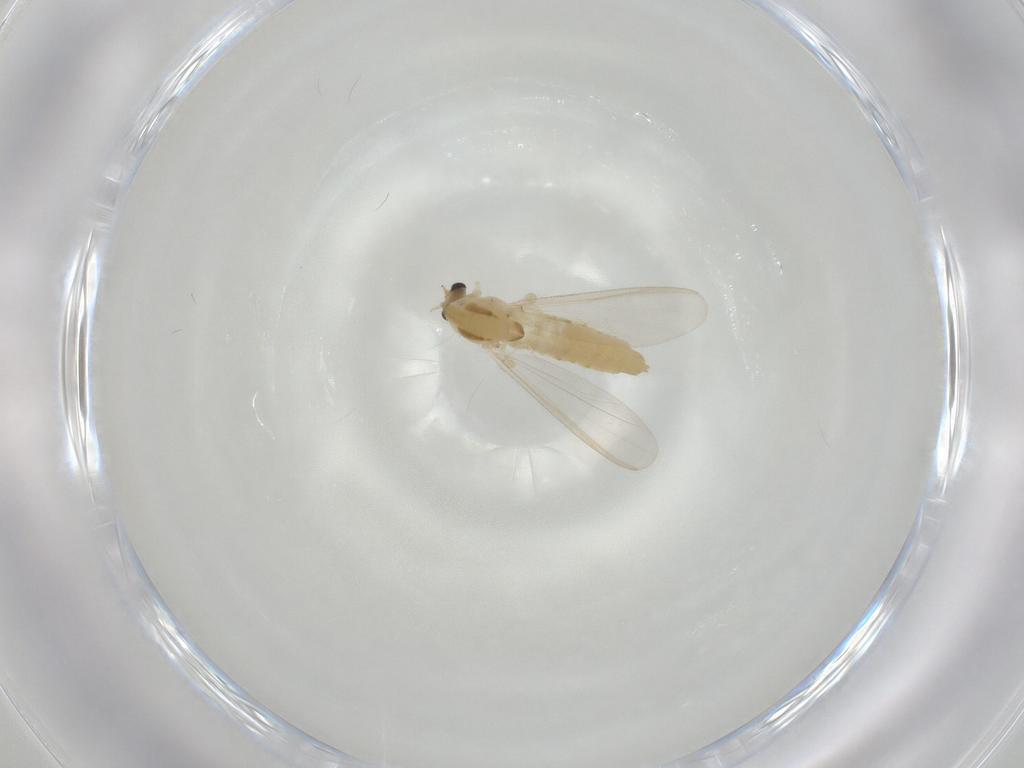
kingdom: Animalia
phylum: Arthropoda
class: Insecta
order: Diptera
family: Chironomidae
